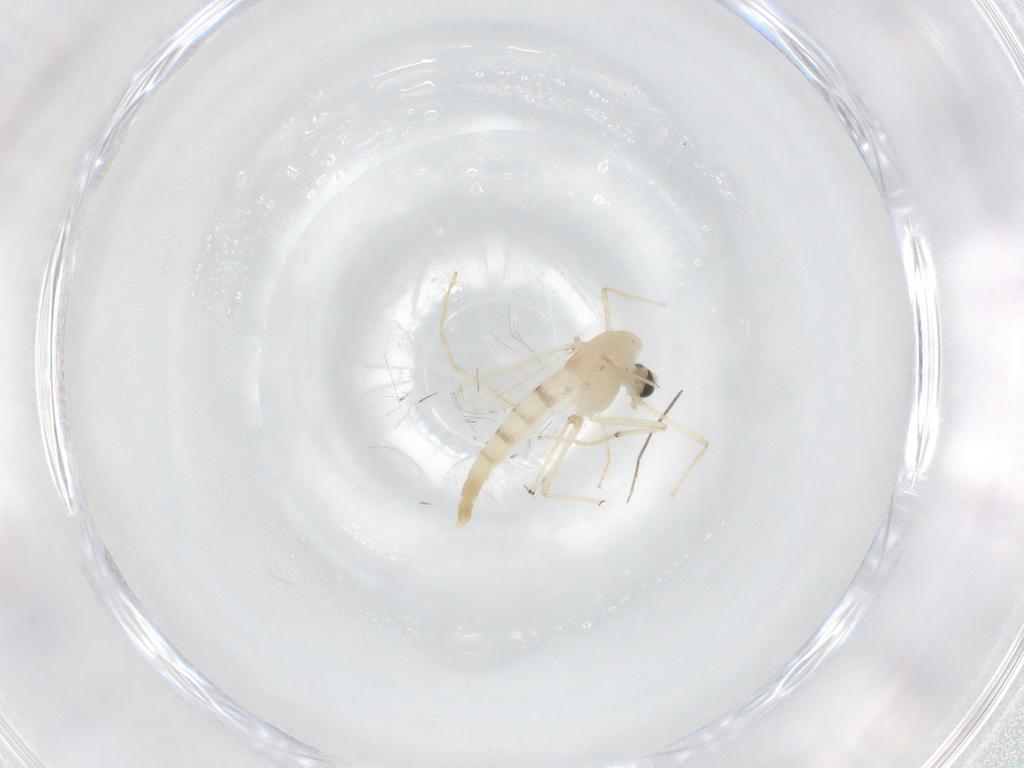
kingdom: Animalia
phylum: Arthropoda
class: Insecta
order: Diptera
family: Chironomidae
